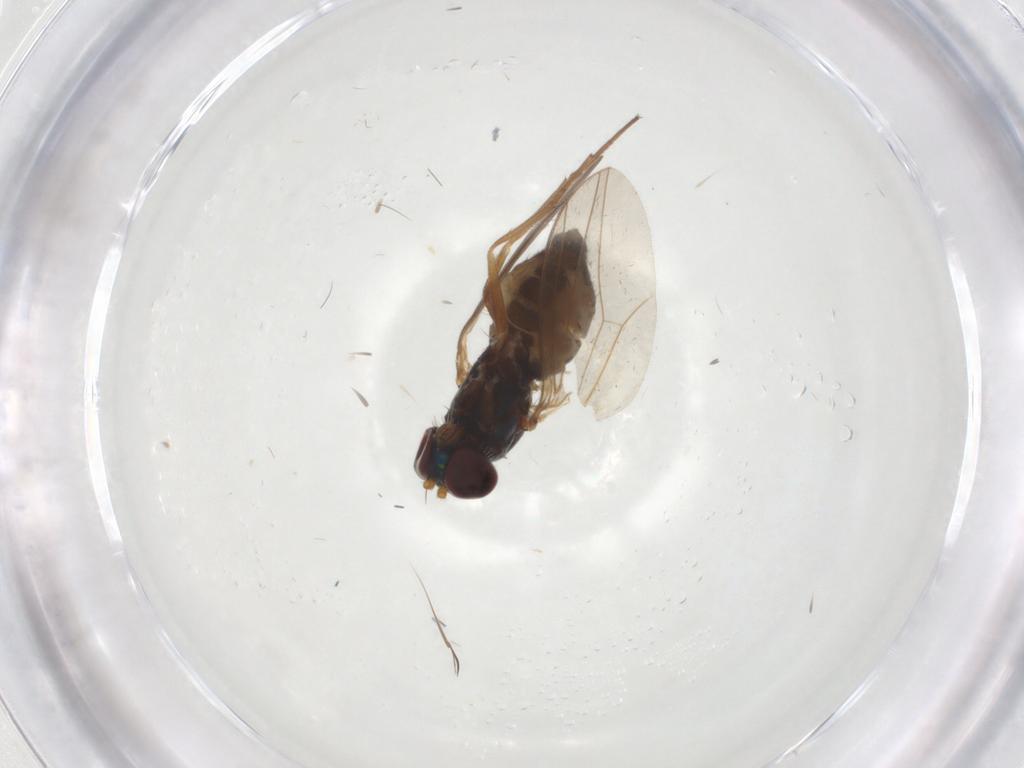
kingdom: Animalia
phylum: Arthropoda
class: Insecta
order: Diptera
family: Dolichopodidae
